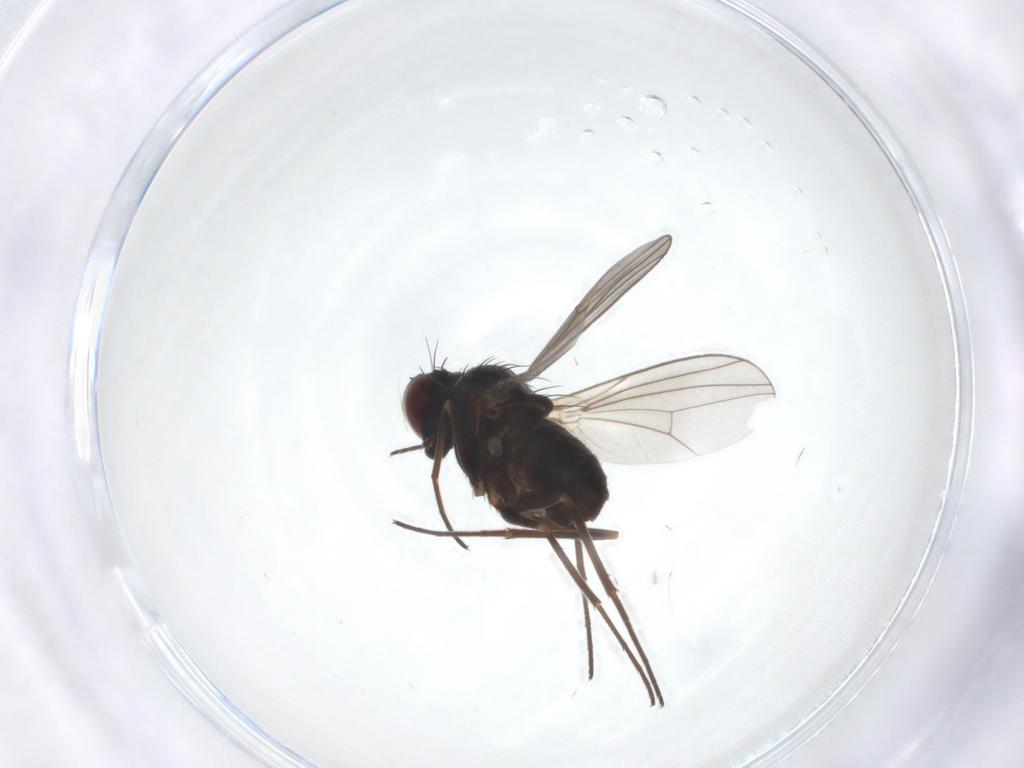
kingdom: Animalia
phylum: Arthropoda
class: Insecta
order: Diptera
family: Sciaridae
